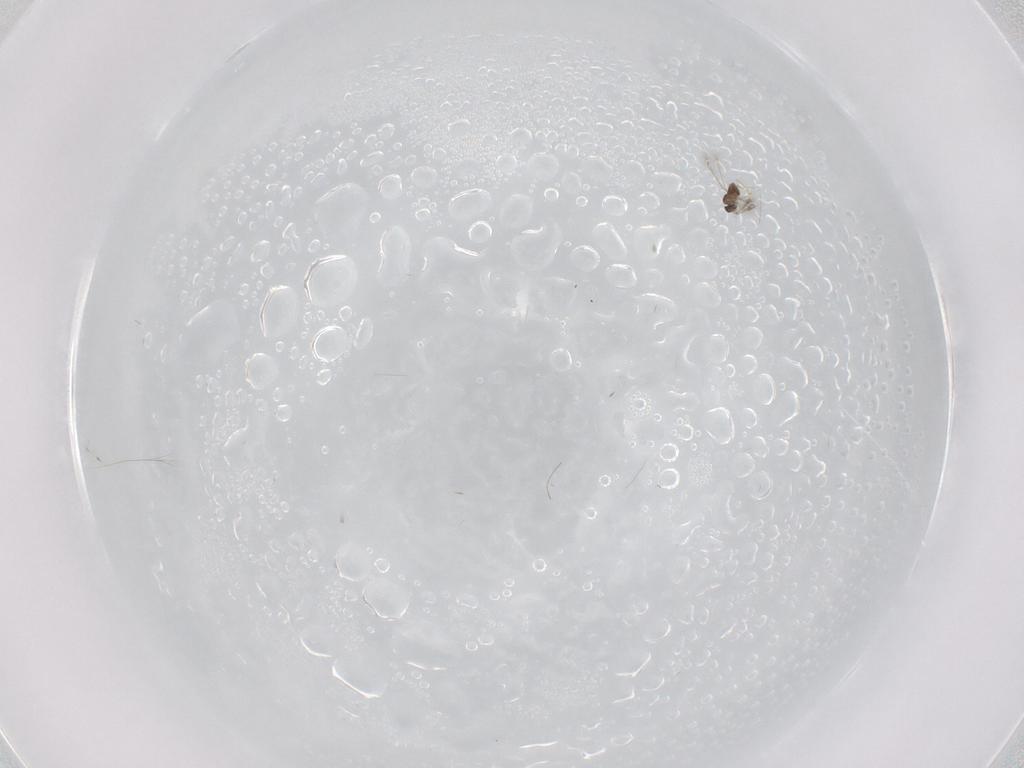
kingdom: Animalia
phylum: Arthropoda
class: Insecta
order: Hymenoptera
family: Mymaridae
